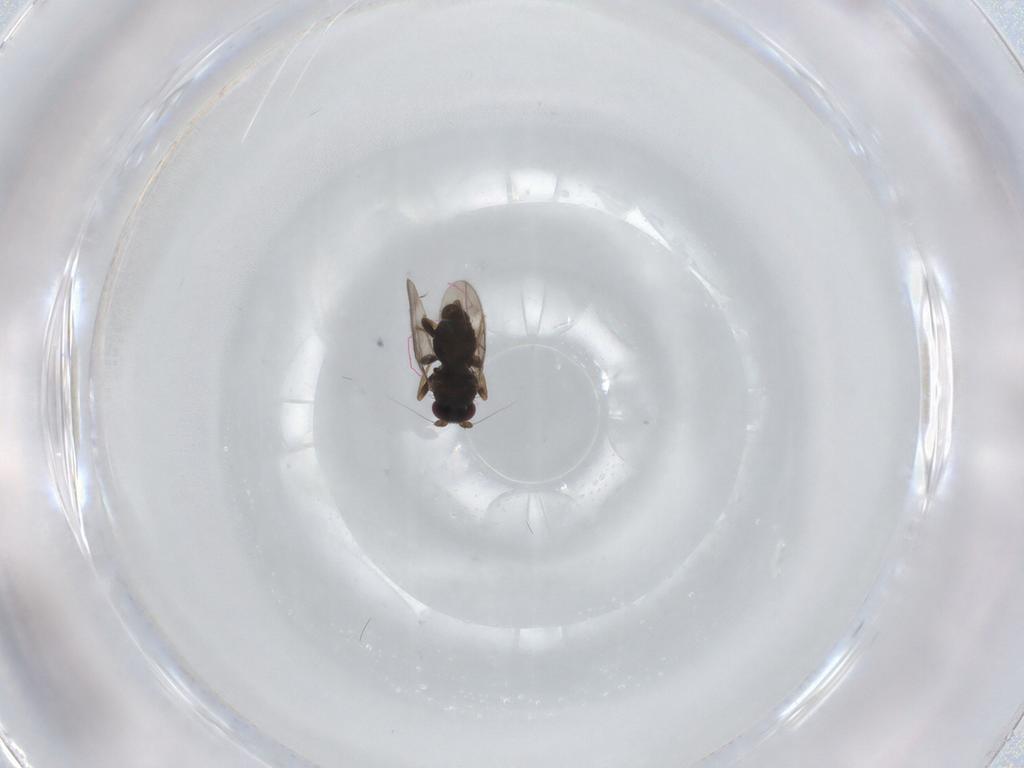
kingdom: Animalia
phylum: Arthropoda
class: Insecta
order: Diptera
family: Sphaeroceridae
